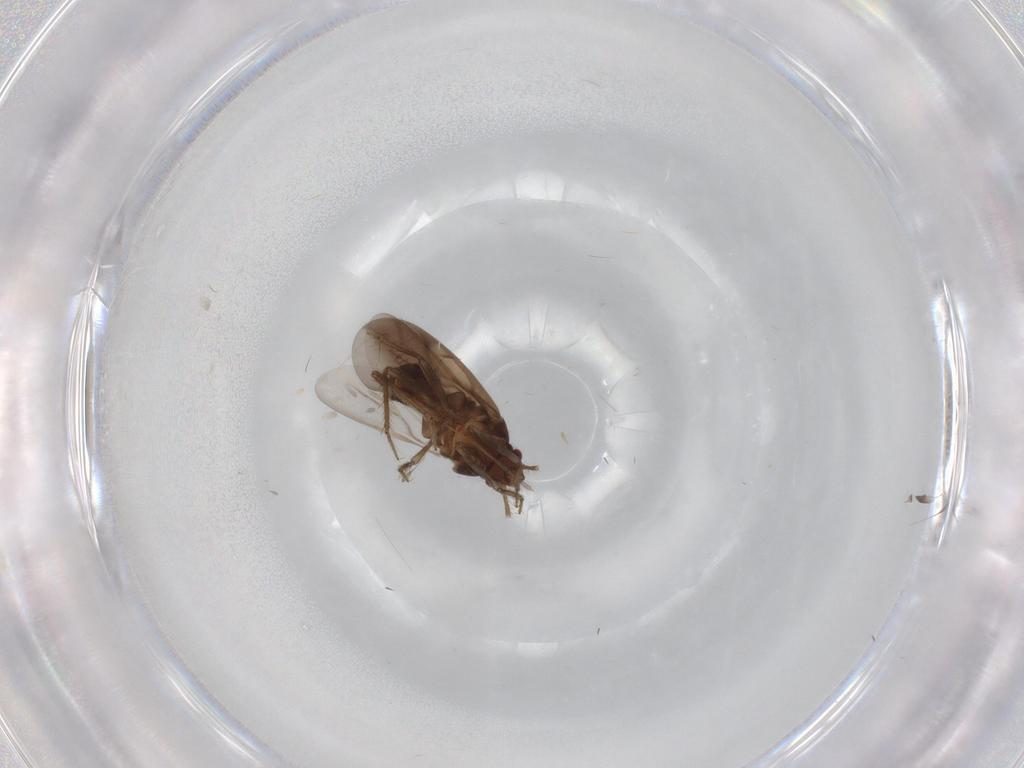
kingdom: Animalia
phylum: Arthropoda
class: Insecta
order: Hemiptera
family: Ceratocombidae
